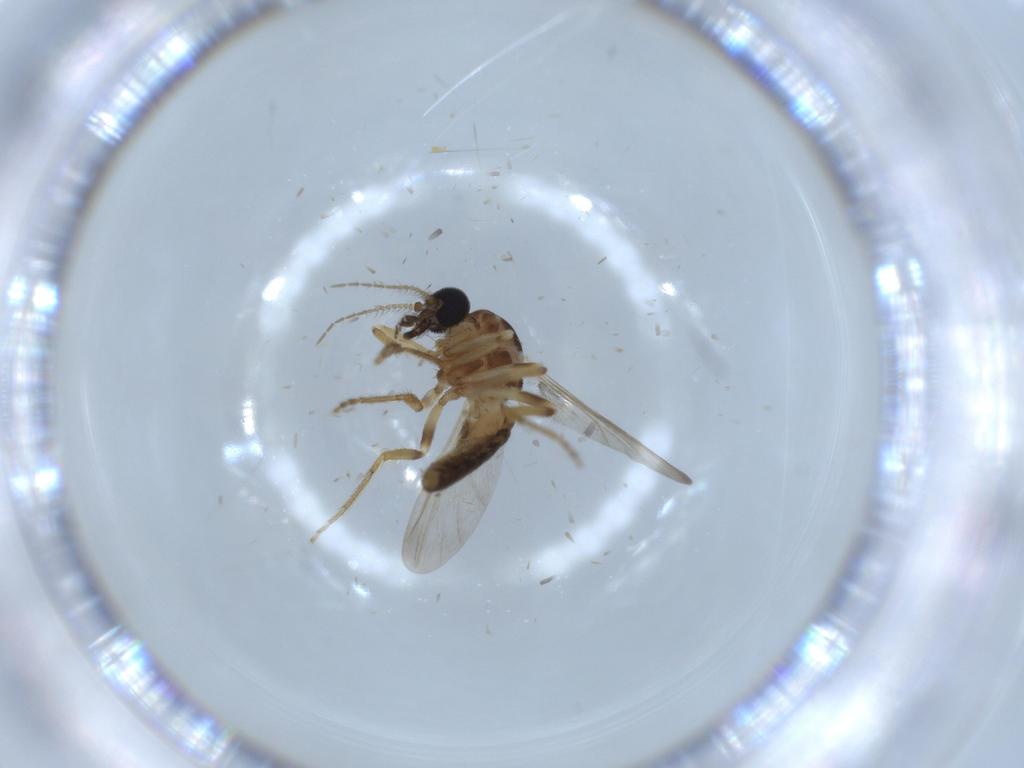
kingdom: Animalia
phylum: Arthropoda
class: Insecta
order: Diptera
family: Ceratopogonidae
